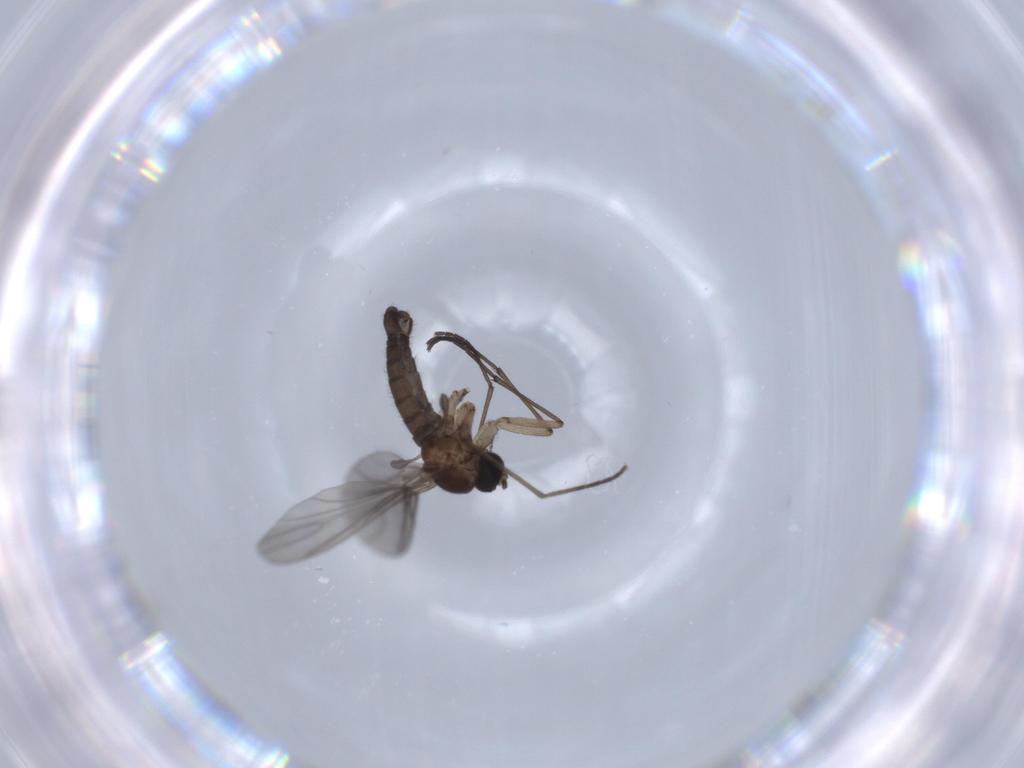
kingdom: Animalia
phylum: Arthropoda
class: Insecta
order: Diptera
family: Sciaridae
